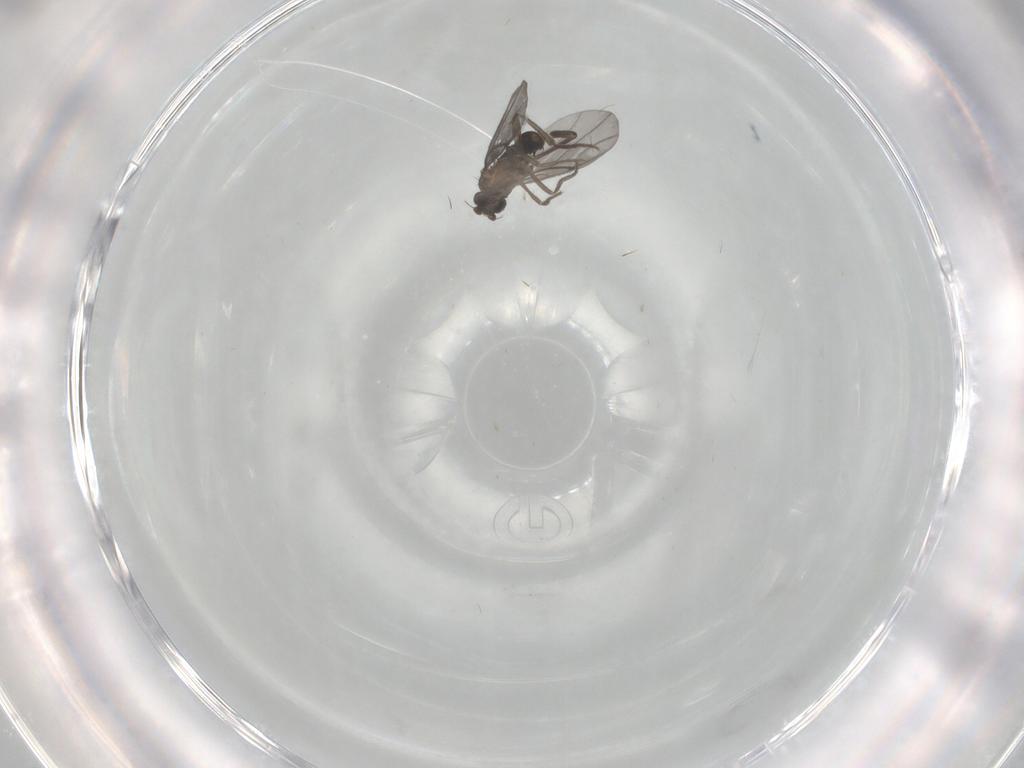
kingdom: Animalia
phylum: Arthropoda
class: Insecta
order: Diptera
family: Phoridae
